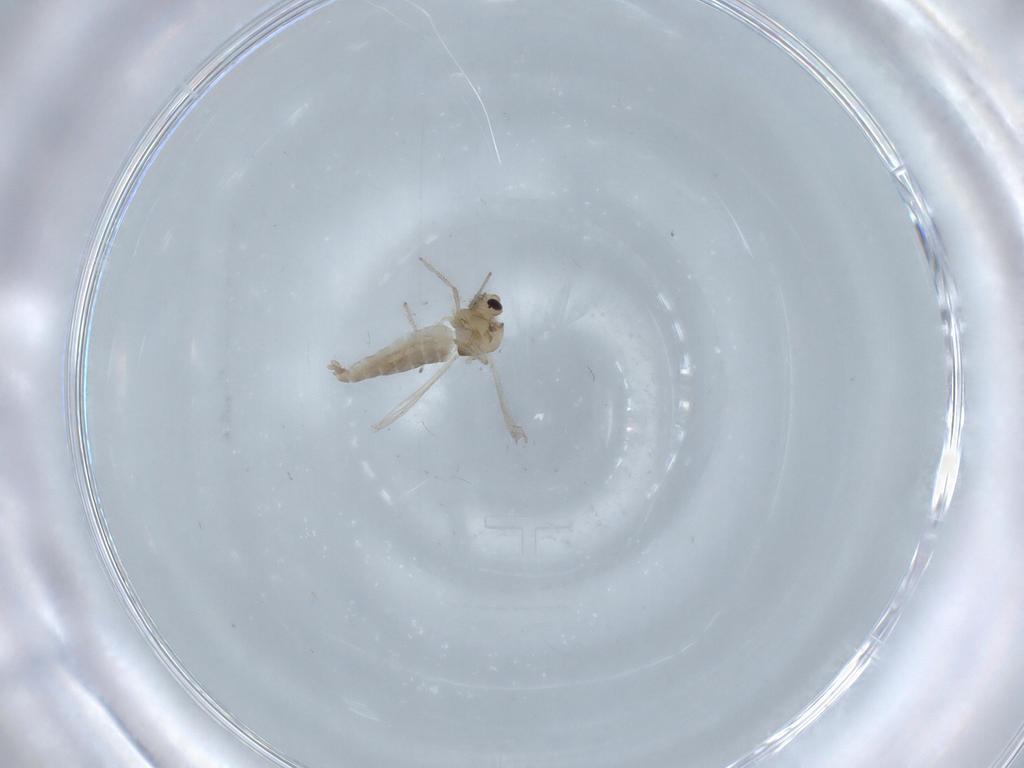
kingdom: Animalia
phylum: Arthropoda
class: Insecta
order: Diptera
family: Chironomidae
